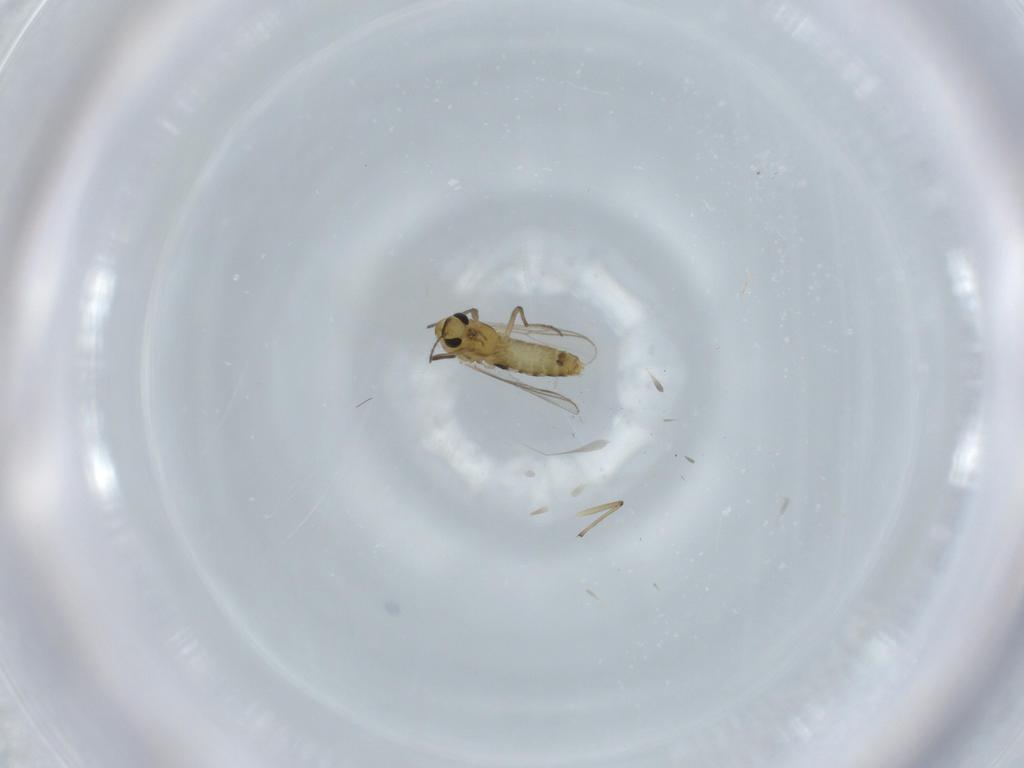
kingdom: Animalia
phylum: Arthropoda
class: Insecta
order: Diptera
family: Chironomidae
